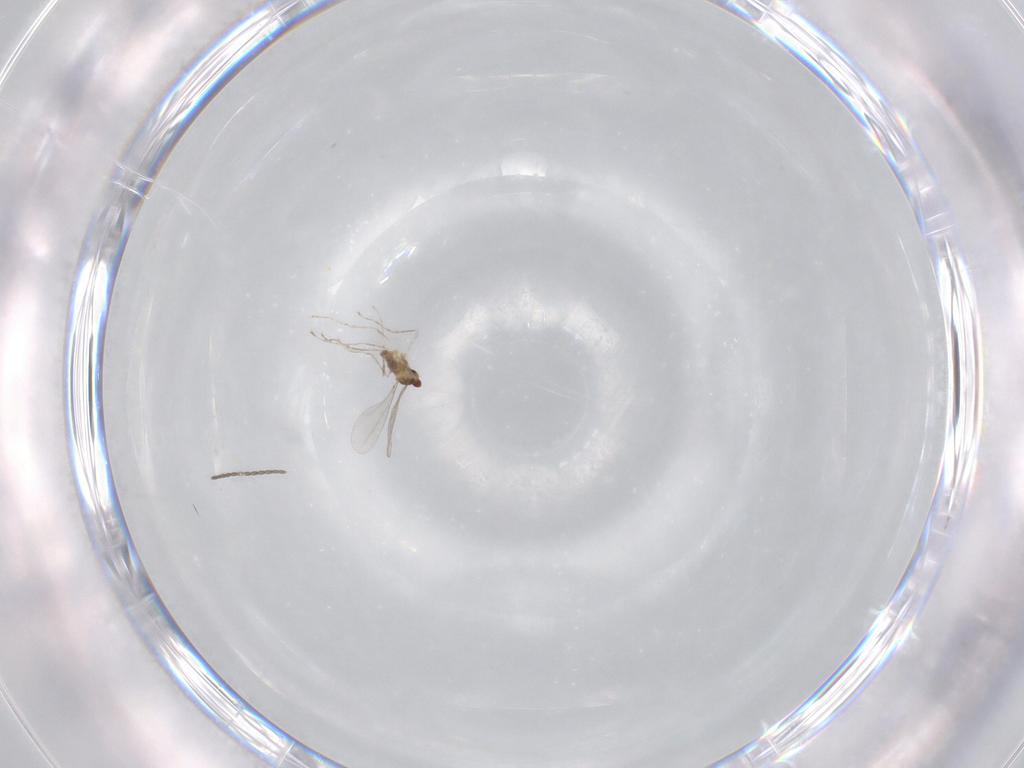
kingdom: Animalia
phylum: Arthropoda
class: Insecta
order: Diptera
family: Cecidomyiidae
